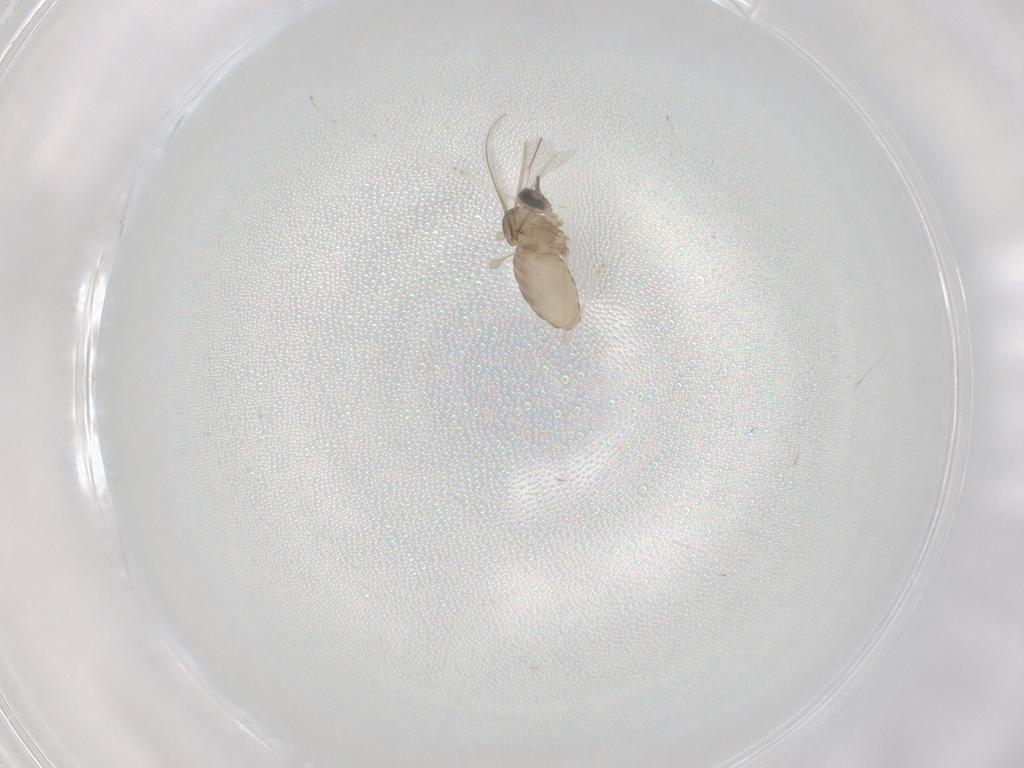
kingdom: Animalia
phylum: Arthropoda
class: Insecta
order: Diptera
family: Cecidomyiidae
